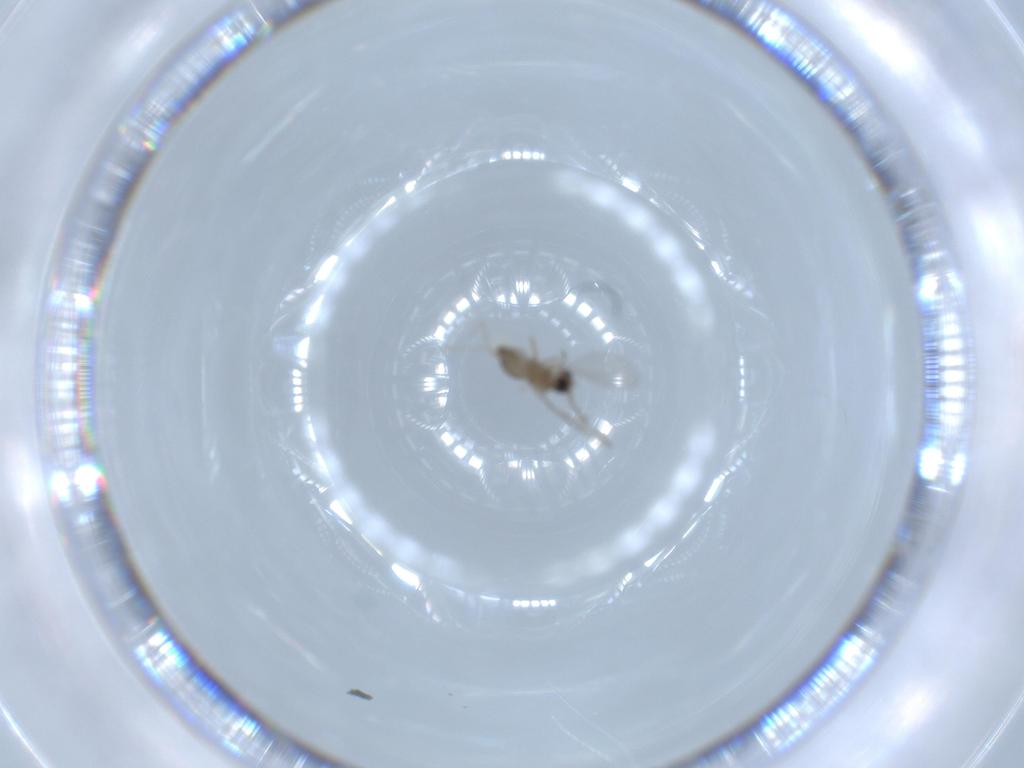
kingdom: Animalia
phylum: Arthropoda
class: Insecta
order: Diptera
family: Cecidomyiidae
